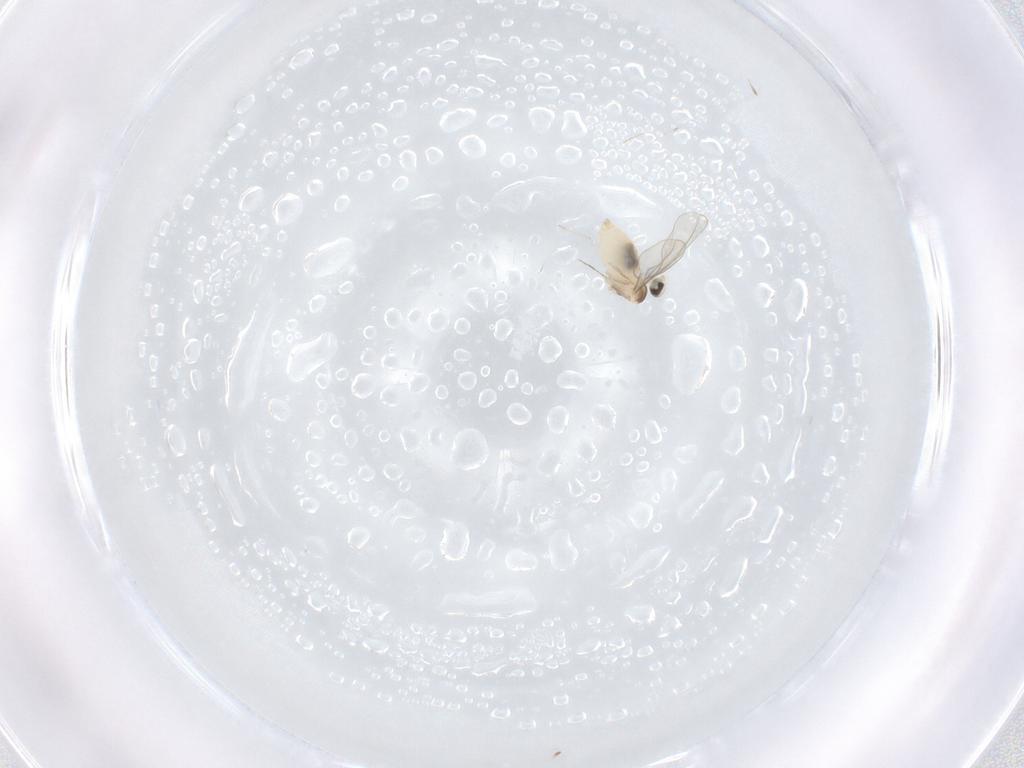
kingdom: Animalia
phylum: Arthropoda
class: Insecta
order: Diptera
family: Cecidomyiidae
